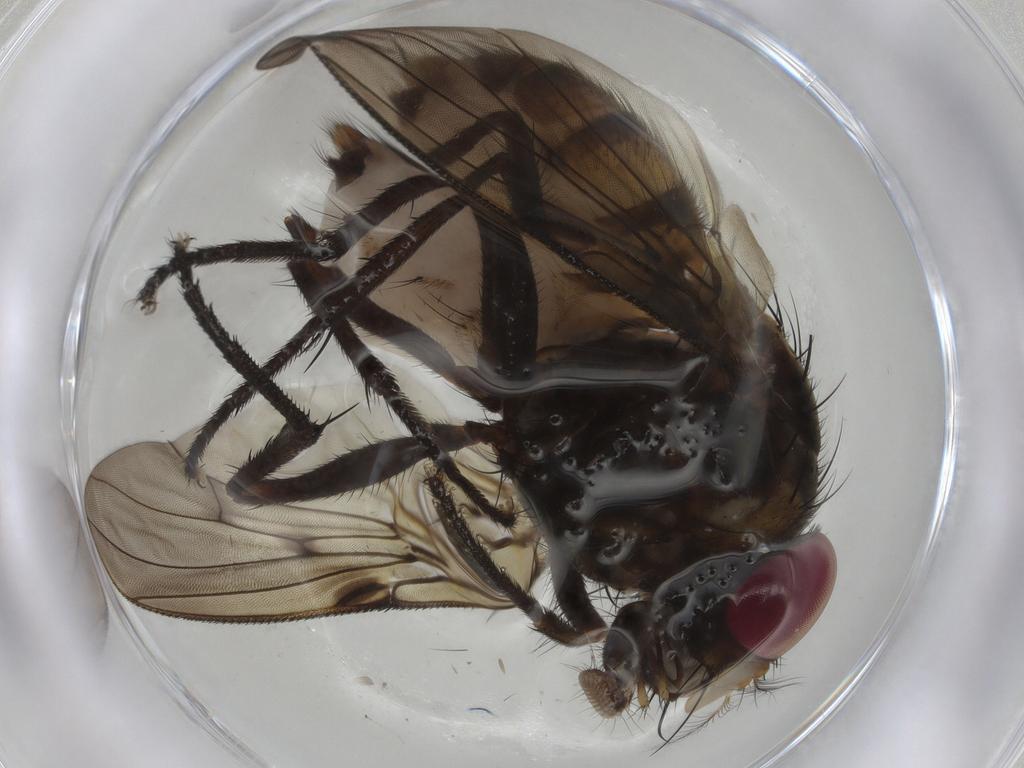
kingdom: Animalia
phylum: Arthropoda
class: Insecta
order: Diptera
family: Muscidae
